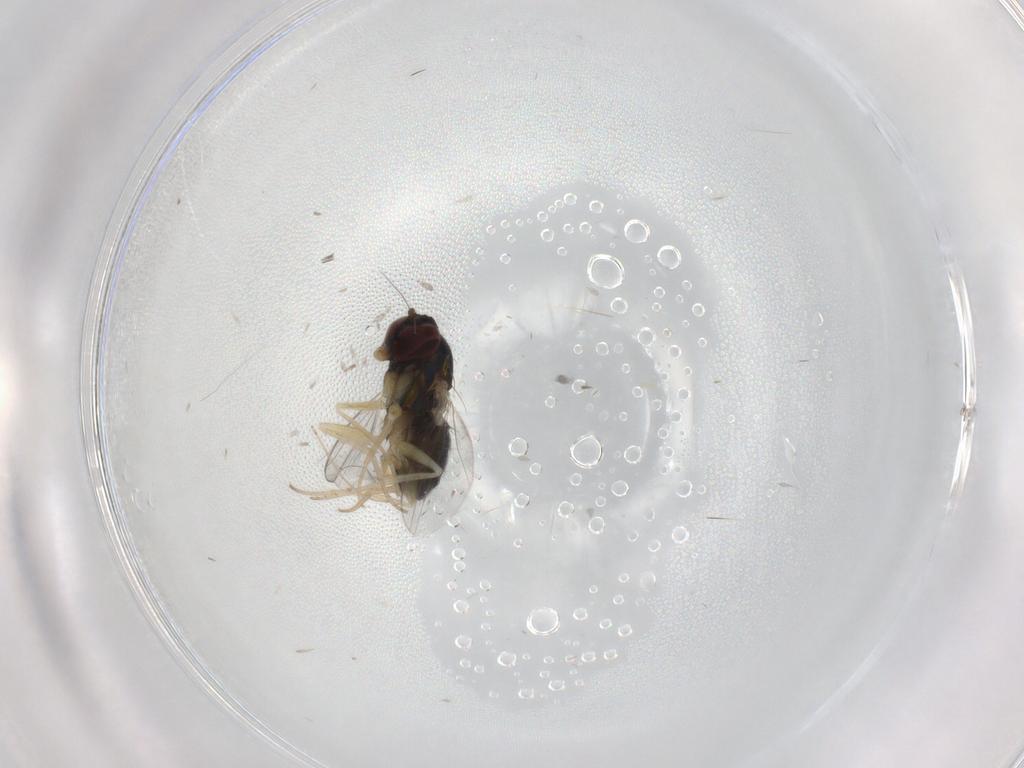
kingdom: Animalia
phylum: Arthropoda
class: Insecta
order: Diptera
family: Dolichopodidae
